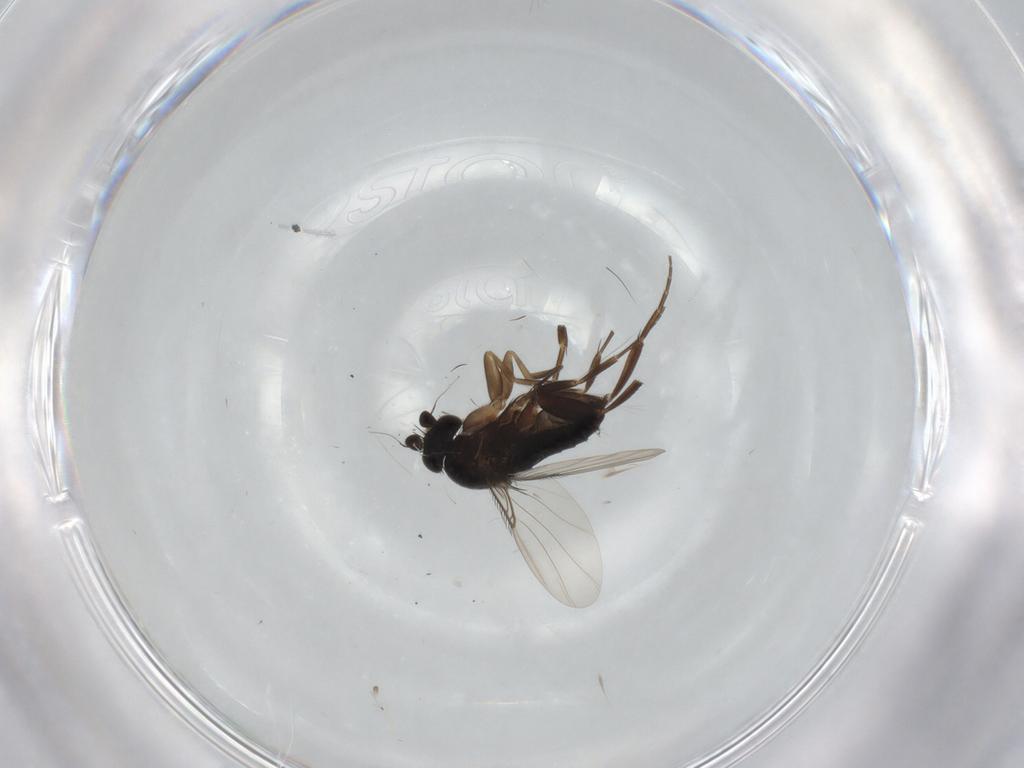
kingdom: Animalia
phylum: Arthropoda
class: Insecta
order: Diptera
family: Phoridae
